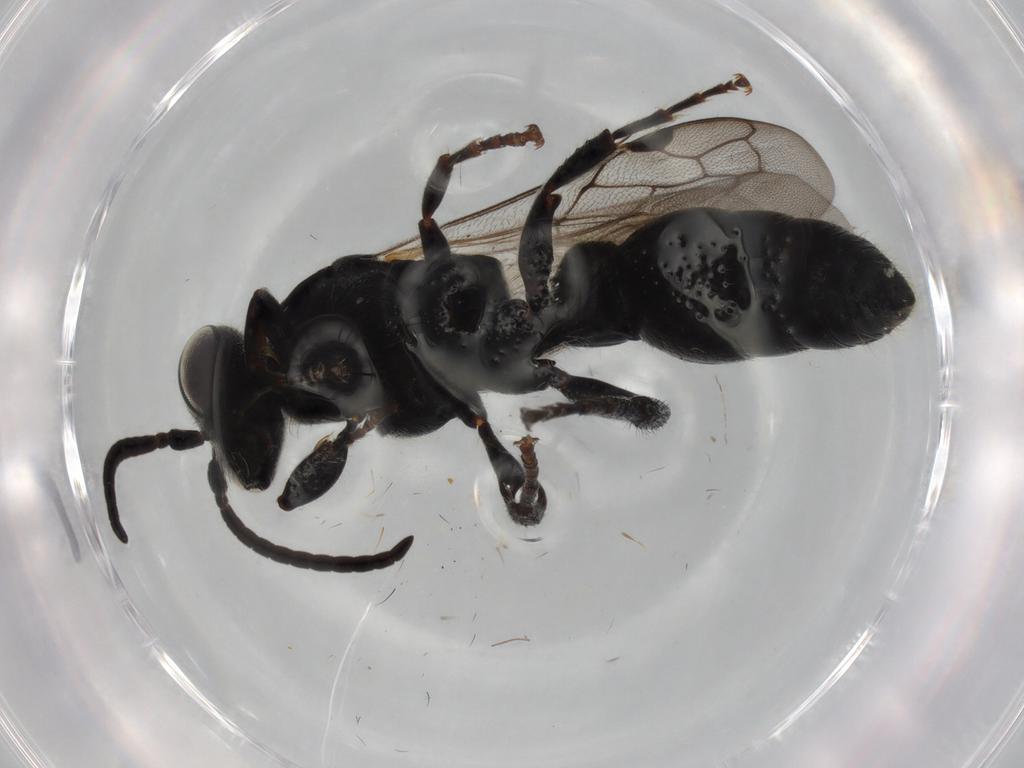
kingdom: Animalia
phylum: Arthropoda
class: Insecta
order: Hymenoptera
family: Tiphiidae
